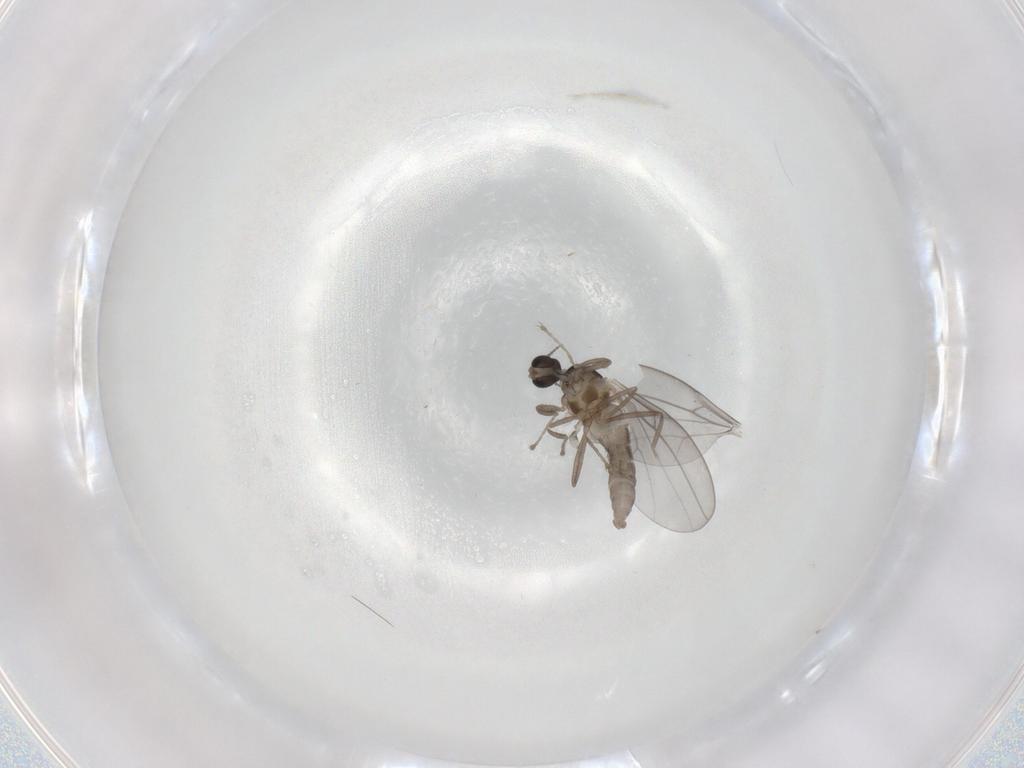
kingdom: Animalia
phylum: Arthropoda
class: Insecta
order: Diptera
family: Cecidomyiidae
